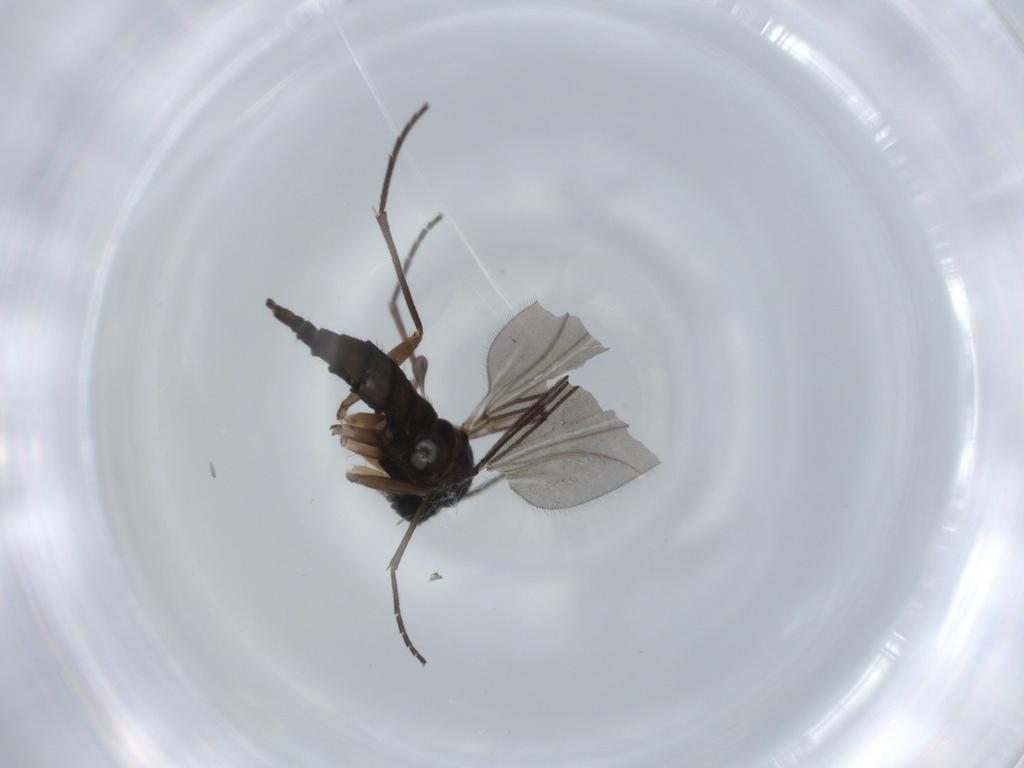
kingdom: Animalia
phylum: Arthropoda
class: Insecta
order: Diptera
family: Sciaridae
